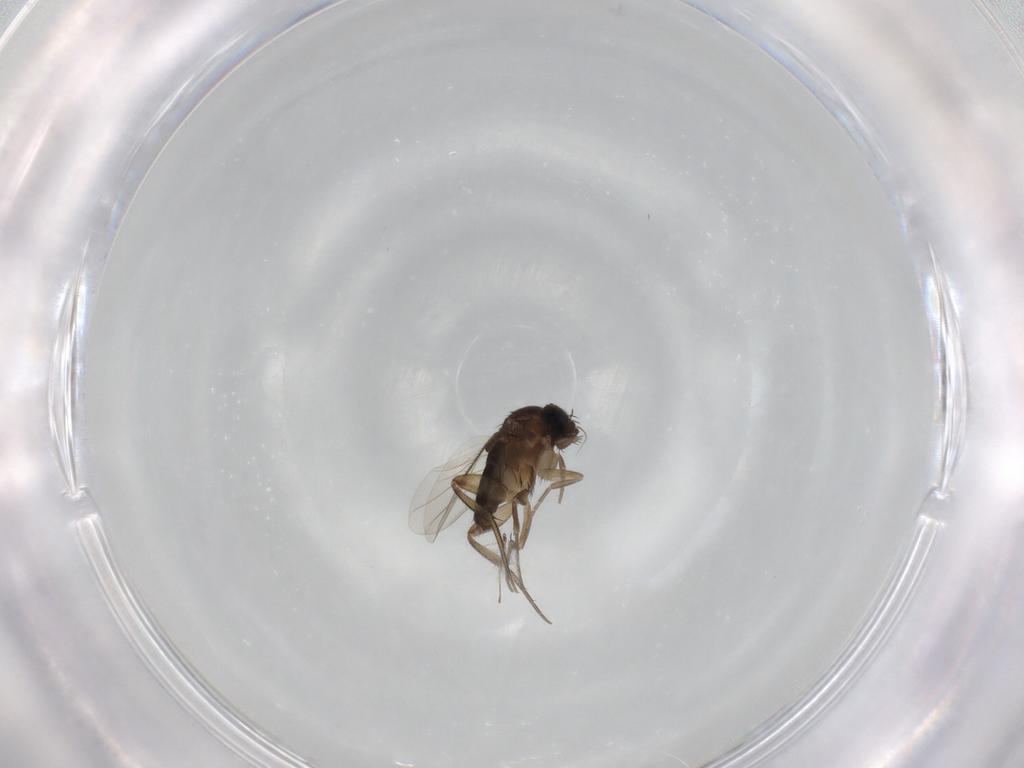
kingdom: Animalia
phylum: Arthropoda
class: Insecta
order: Diptera
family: Phoridae
